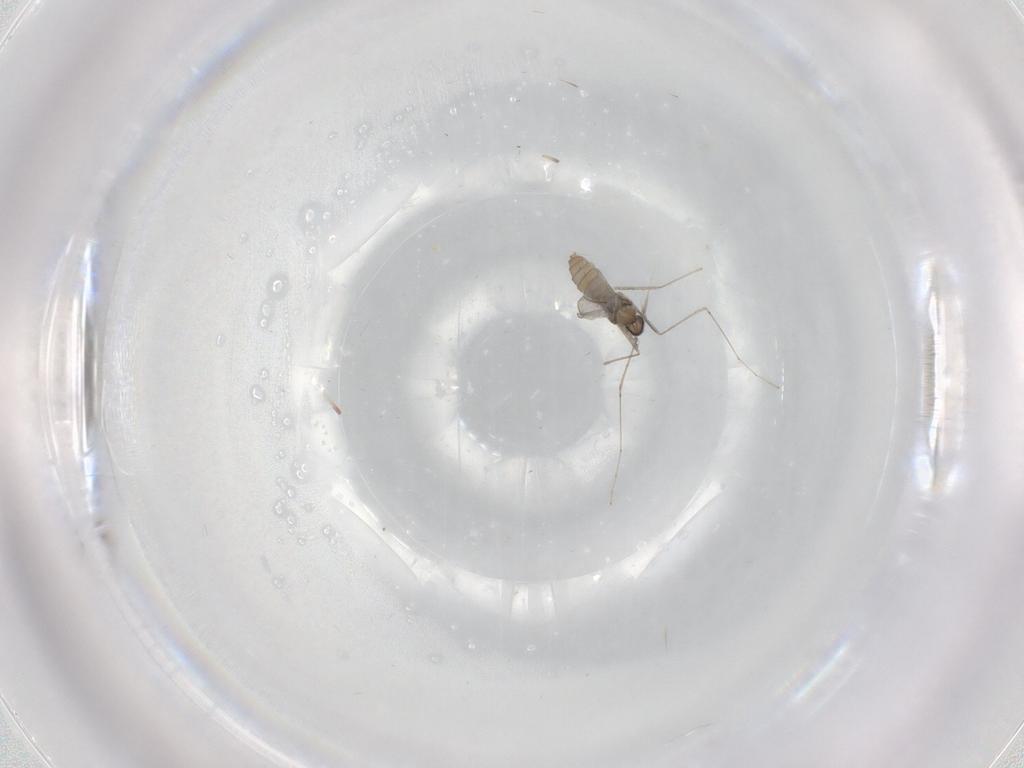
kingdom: Animalia
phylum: Arthropoda
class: Insecta
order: Diptera
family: Cecidomyiidae
